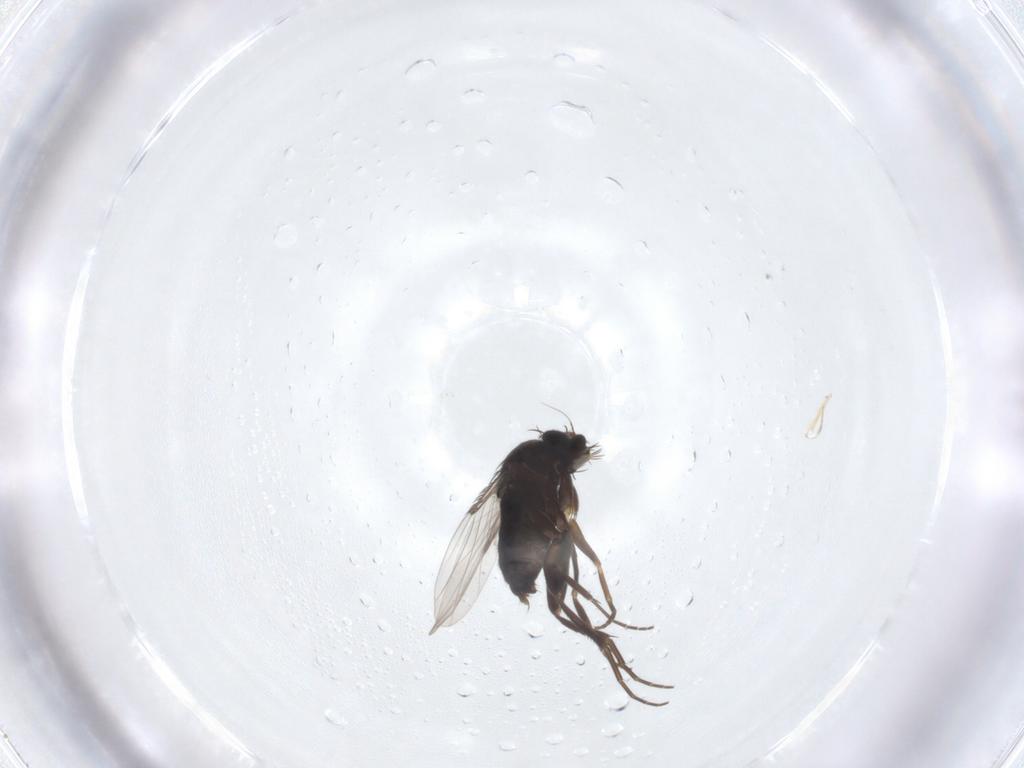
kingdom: Animalia
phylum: Arthropoda
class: Insecta
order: Diptera
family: Phoridae
